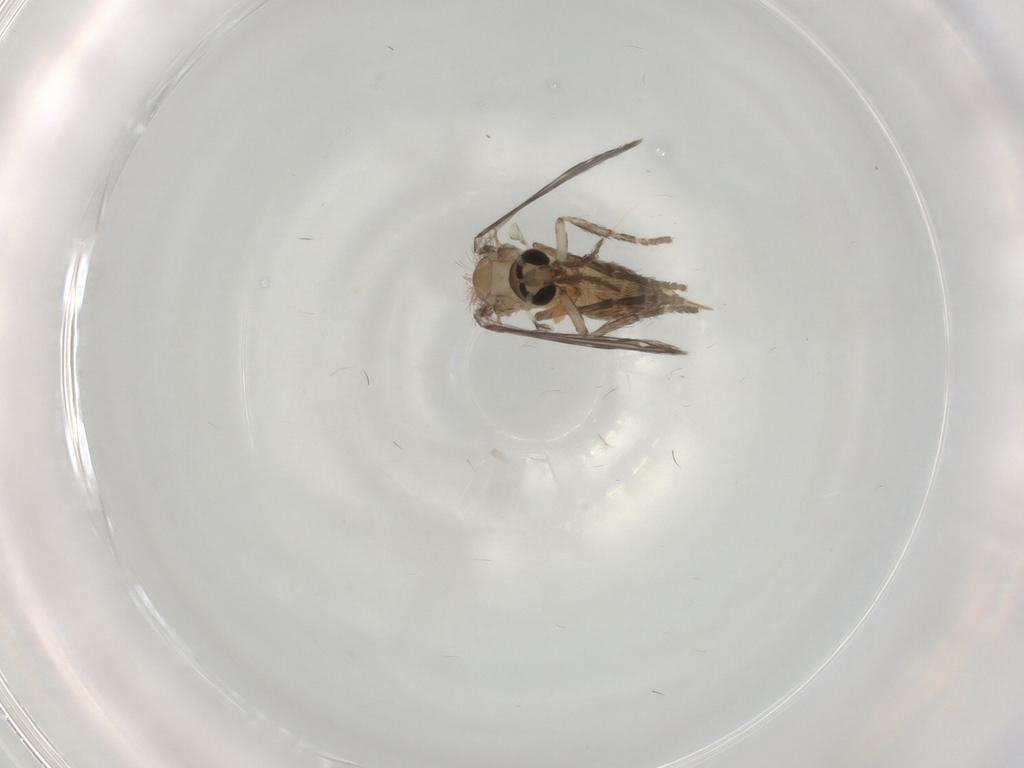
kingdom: Animalia
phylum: Arthropoda
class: Insecta
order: Diptera
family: Psychodidae
